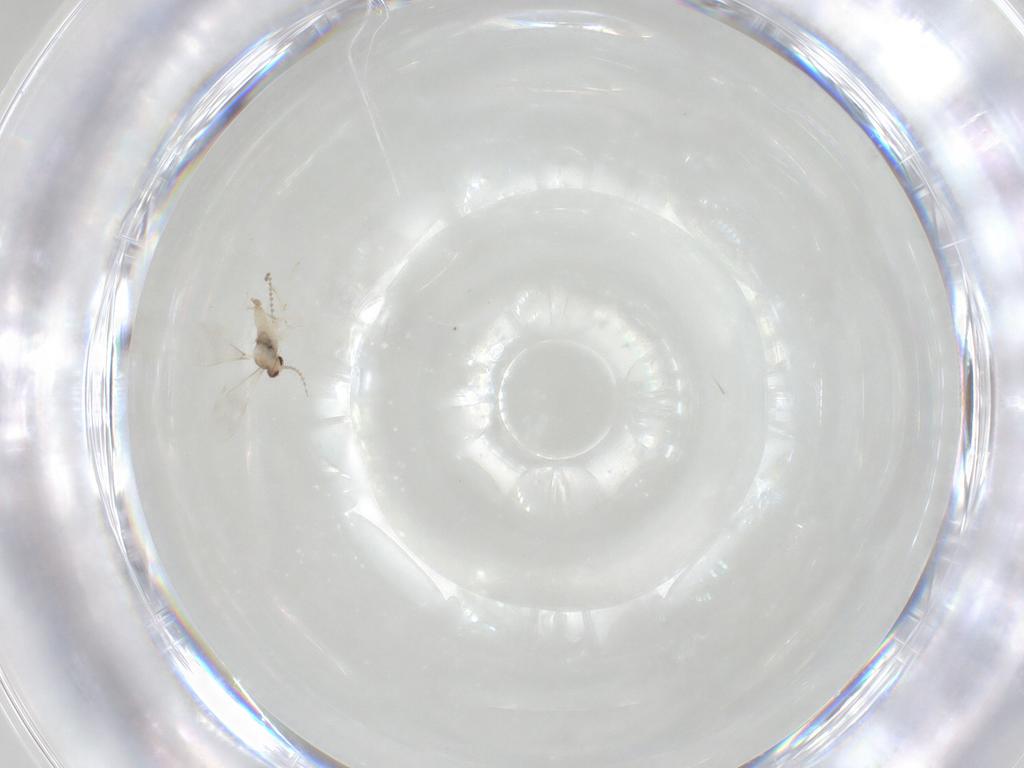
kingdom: Animalia
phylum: Arthropoda
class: Insecta
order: Diptera
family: Cecidomyiidae
